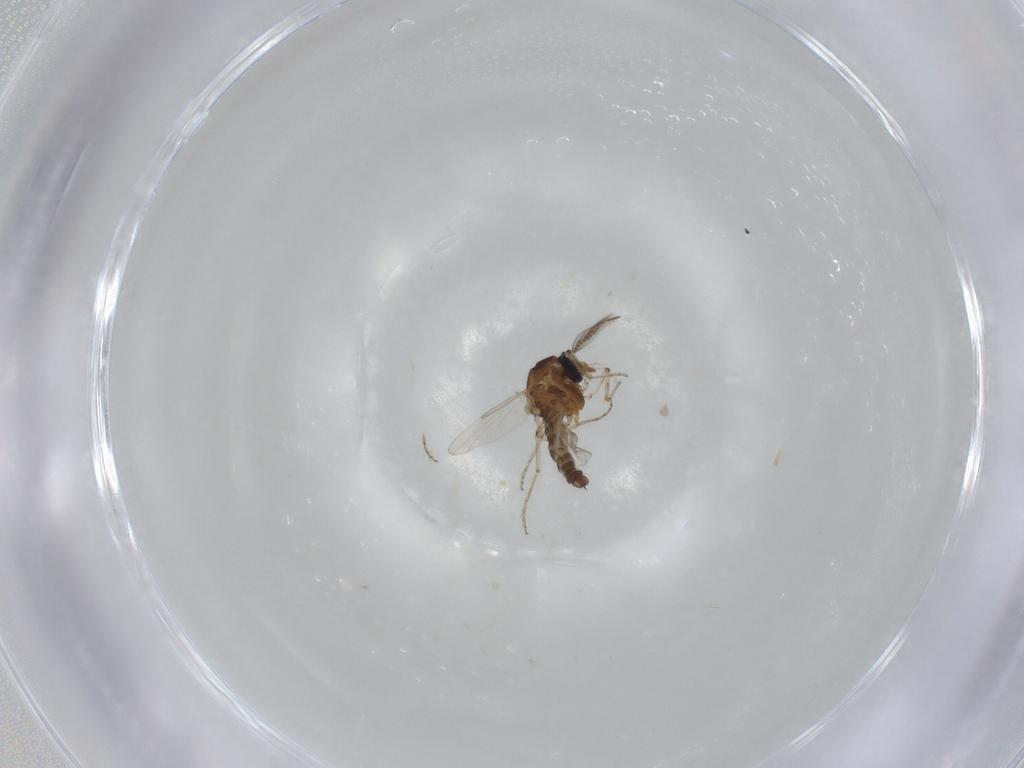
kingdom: Animalia
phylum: Arthropoda
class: Insecta
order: Diptera
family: Ceratopogonidae
